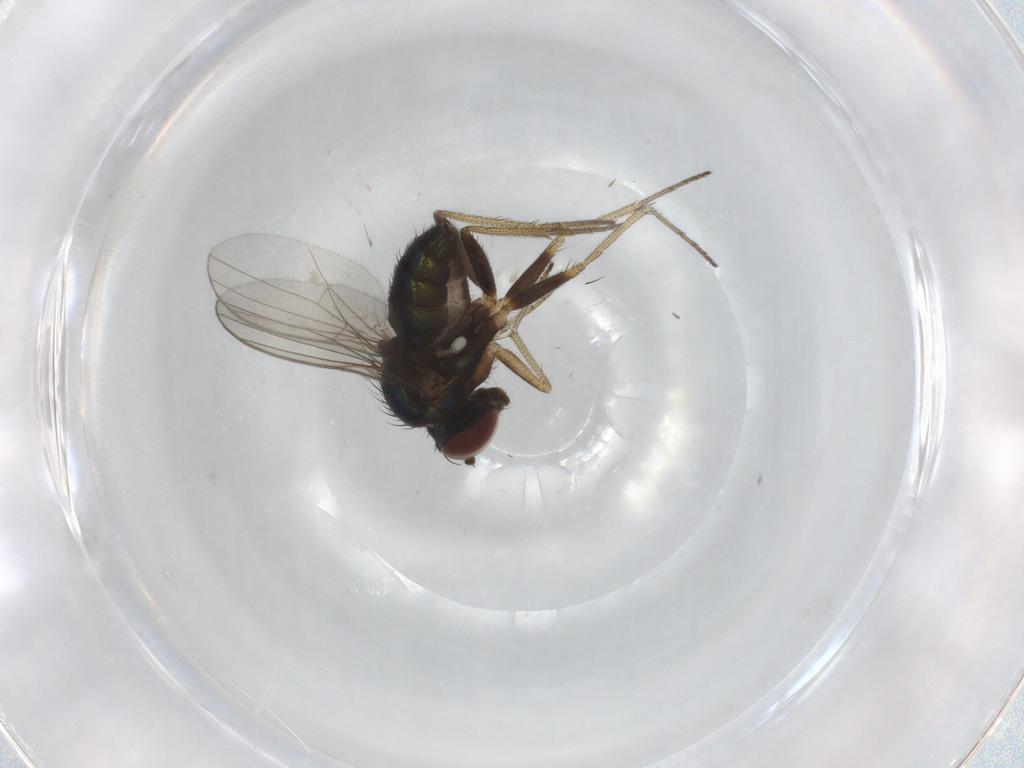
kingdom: Animalia
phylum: Arthropoda
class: Insecta
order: Diptera
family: Dolichopodidae
